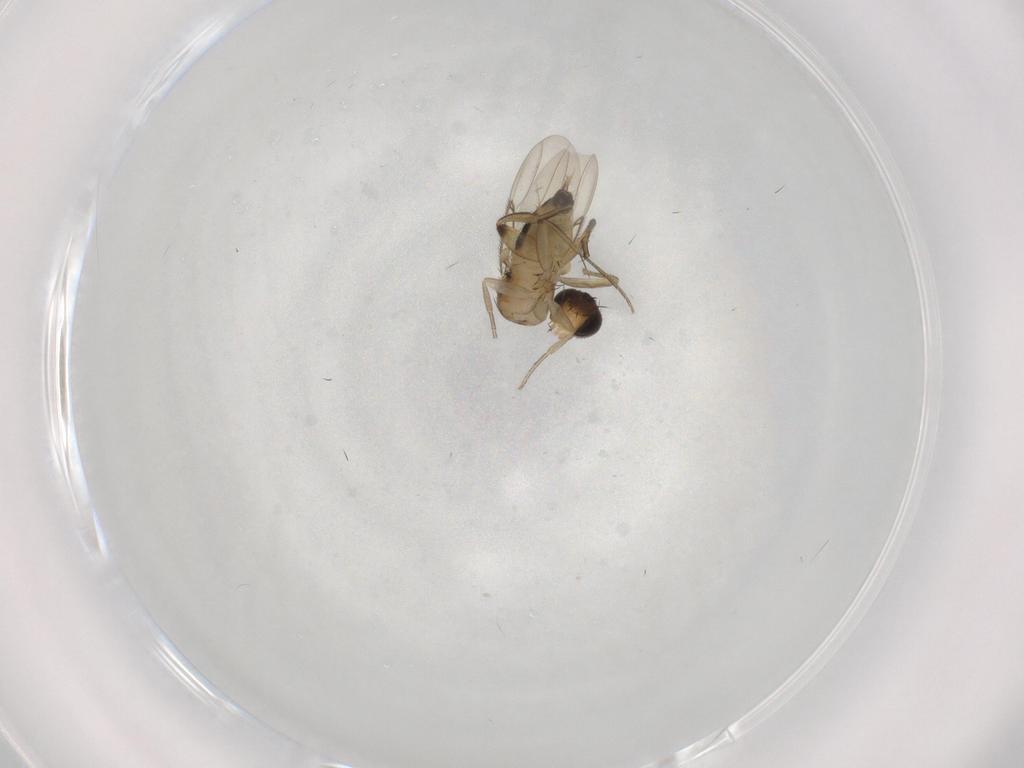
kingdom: Animalia
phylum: Arthropoda
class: Insecta
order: Diptera
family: Phoridae
